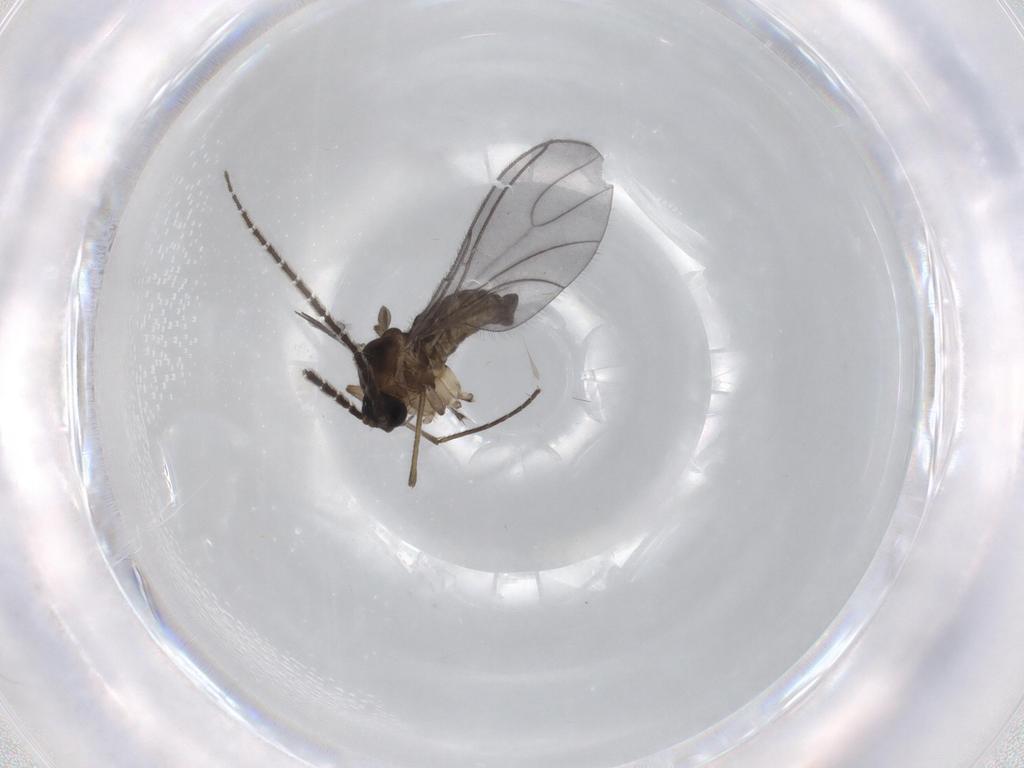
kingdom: Animalia
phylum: Arthropoda
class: Insecta
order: Diptera
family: Sciaridae
